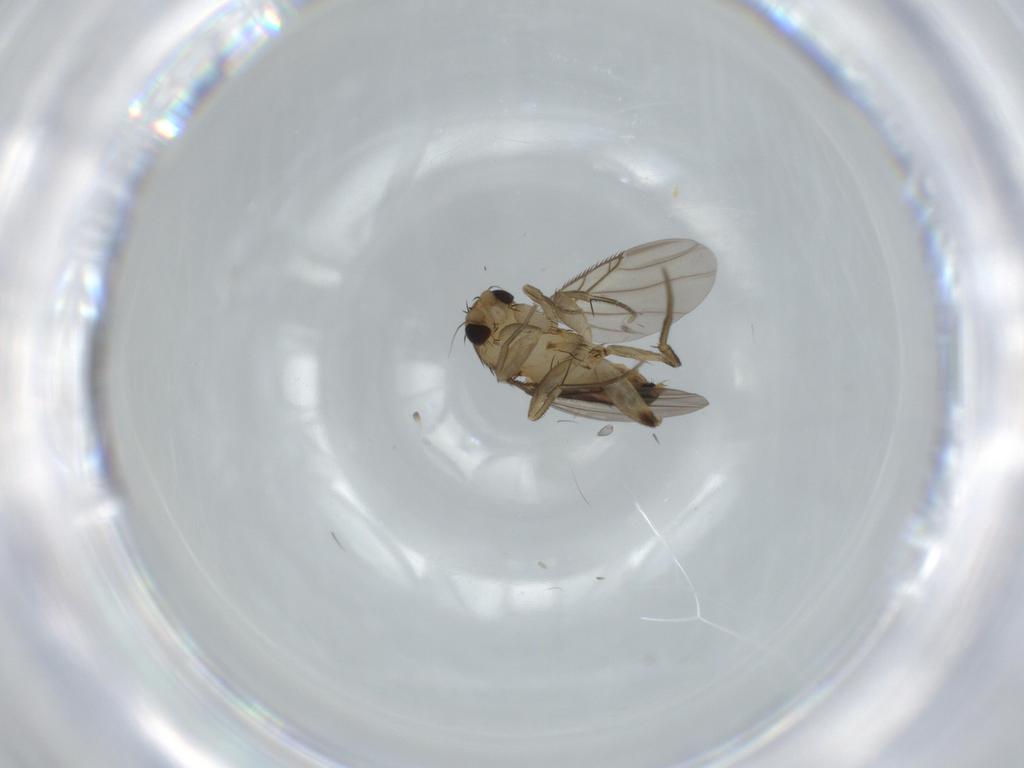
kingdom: Animalia
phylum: Arthropoda
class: Insecta
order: Diptera
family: Phoridae
